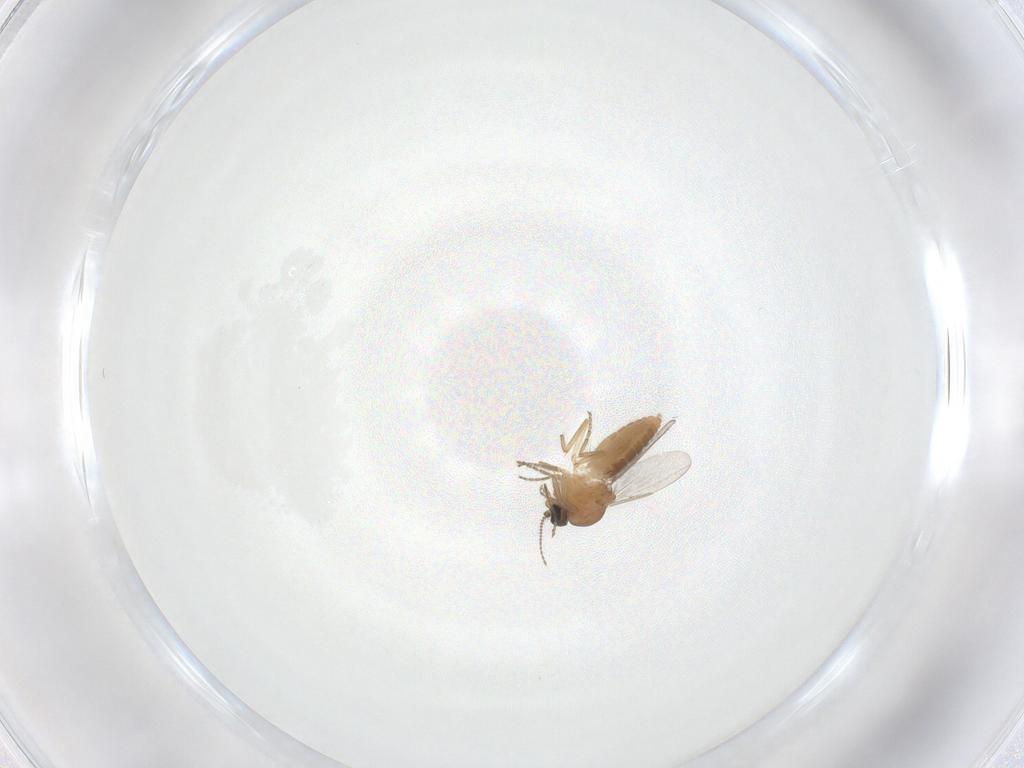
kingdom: Animalia
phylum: Arthropoda
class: Insecta
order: Diptera
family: Ceratopogonidae
